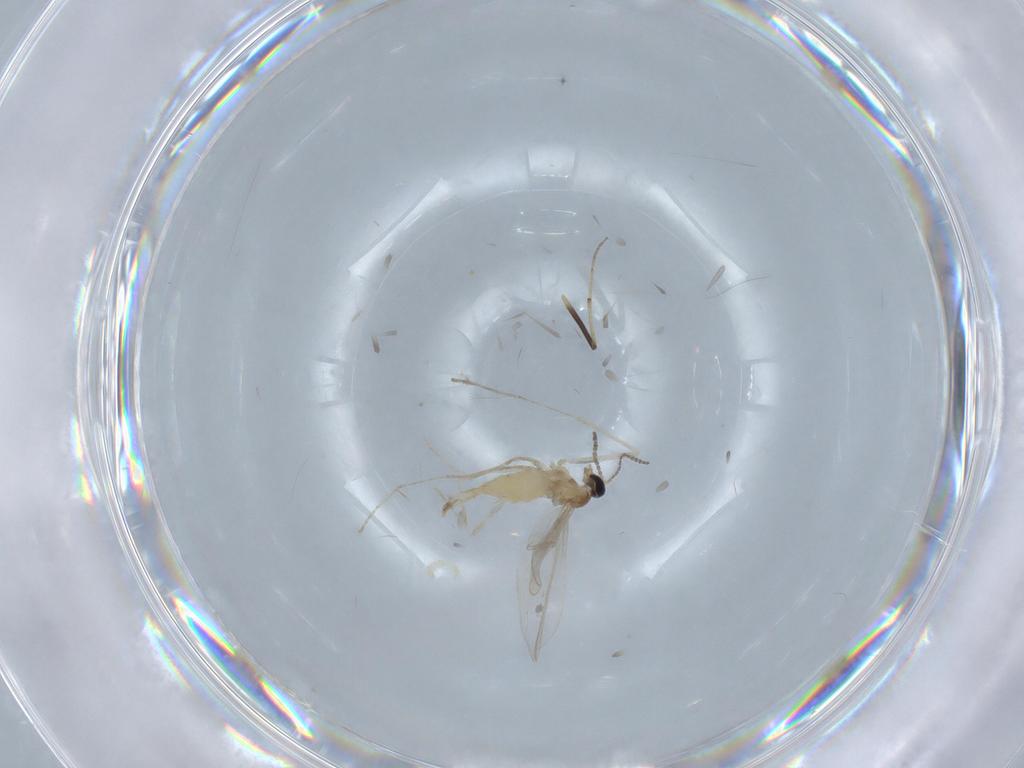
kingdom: Animalia
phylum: Arthropoda
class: Insecta
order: Diptera
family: Cecidomyiidae
